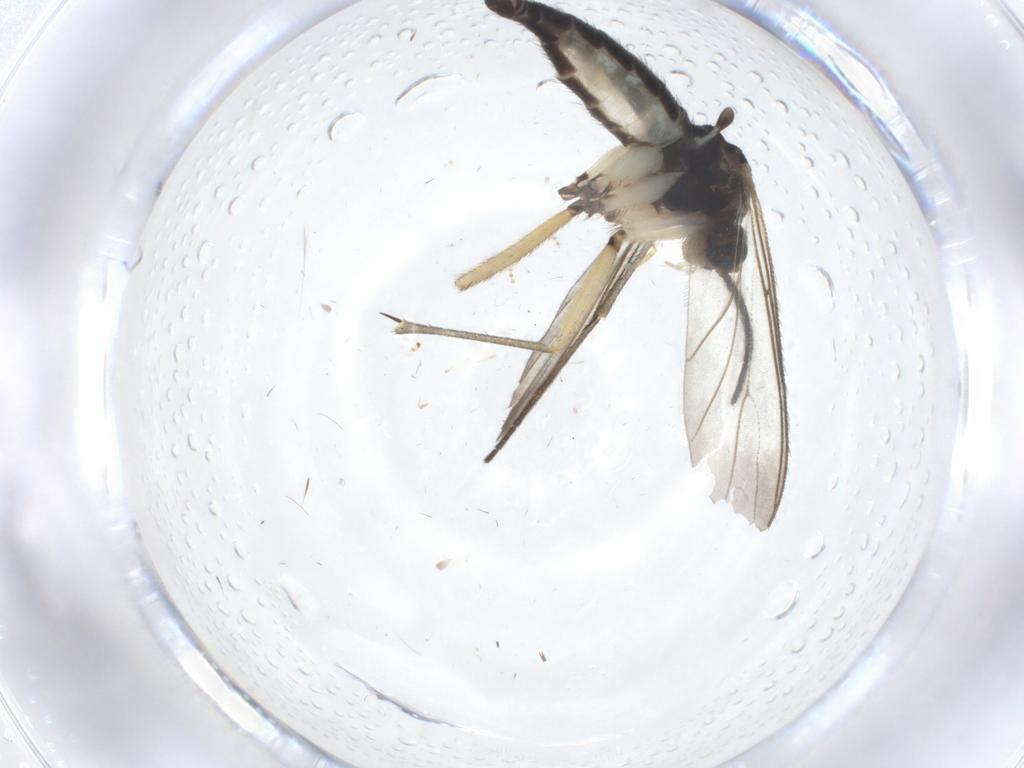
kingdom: Animalia
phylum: Arthropoda
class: Insecta
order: Diptera
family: Sciaridae
